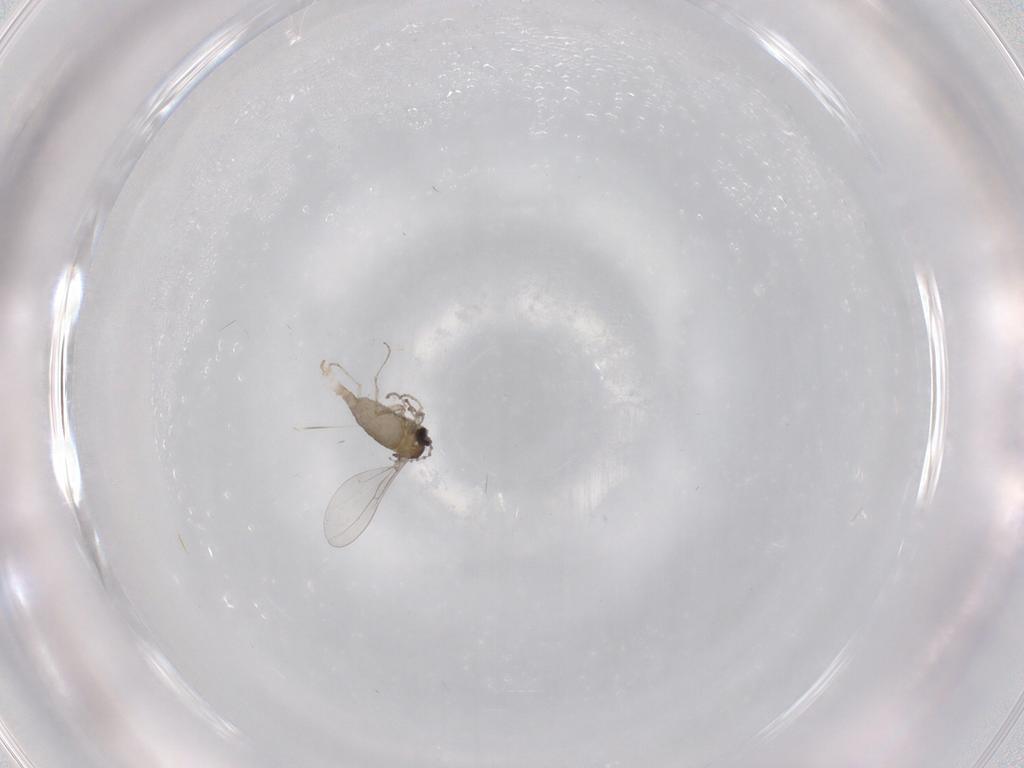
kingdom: Animalia
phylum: Arthropoda
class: Insecta
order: Diptera
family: Cecidomyiidae
